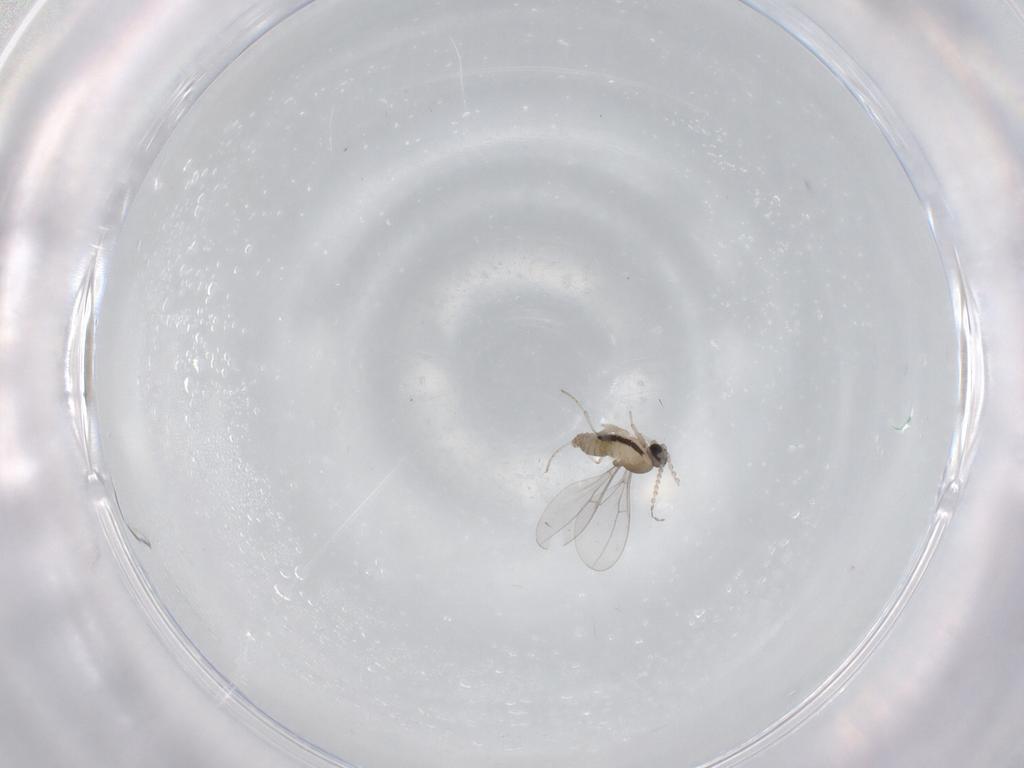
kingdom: Animalia
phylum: Arthropoda
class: Insecta
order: Diptera
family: Cecidomyiidae
